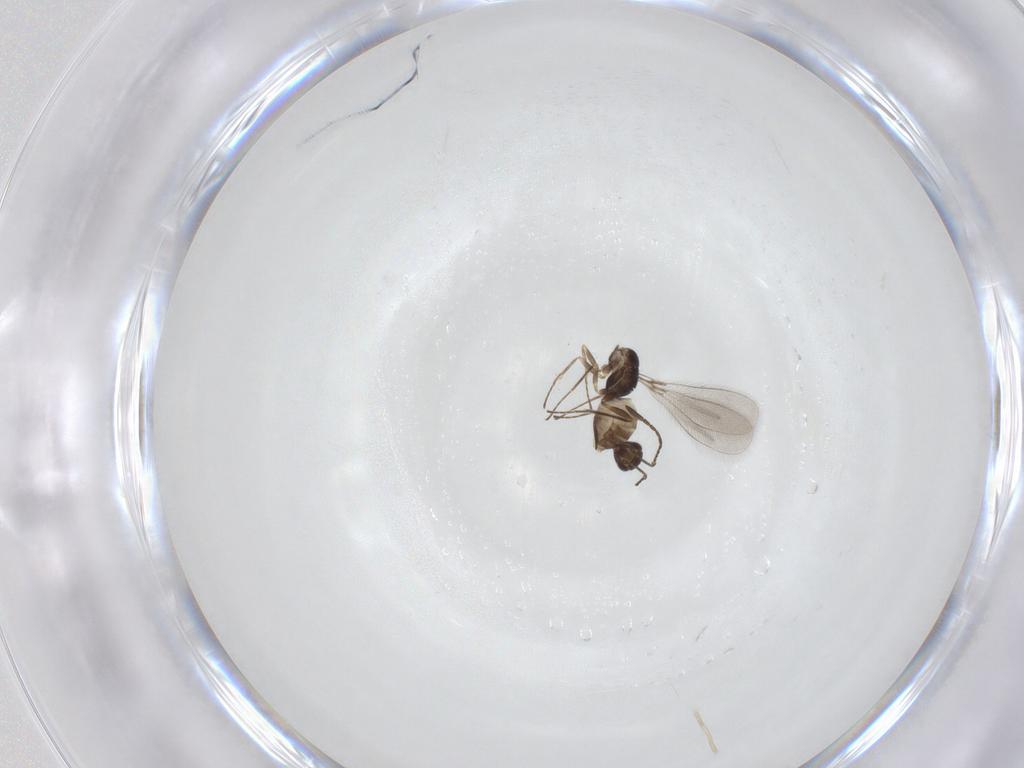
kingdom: Animalia
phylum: Arthropoda
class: Insecta
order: Hymenoptera
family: Mymaridae
